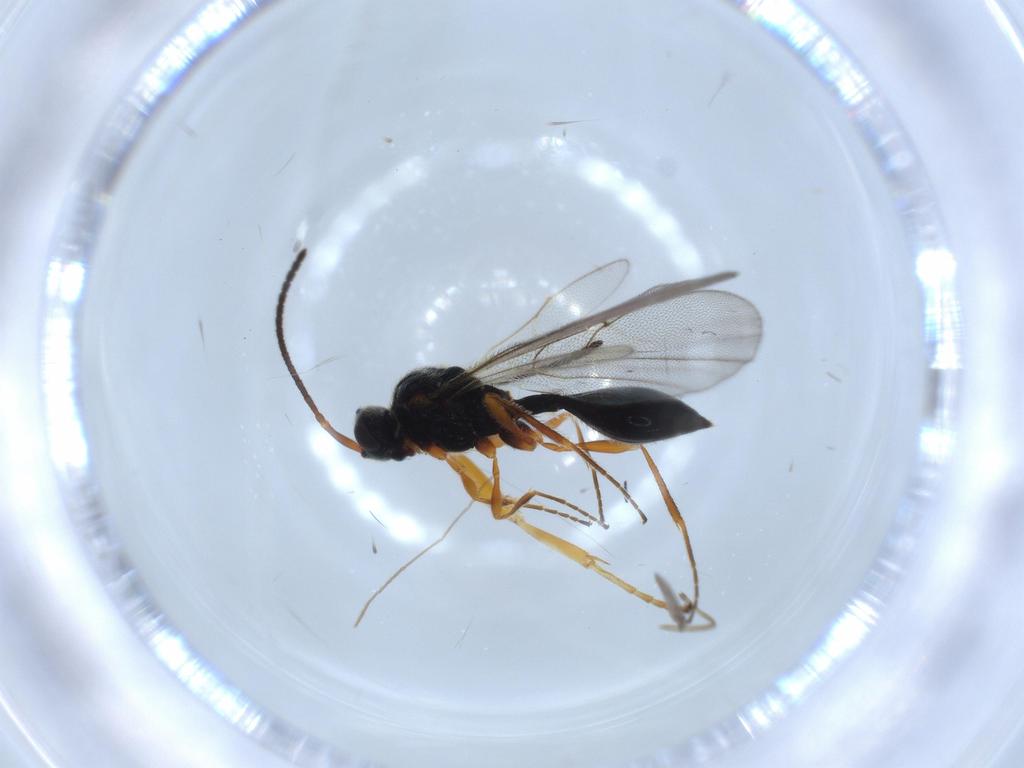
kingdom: Animalia
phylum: Arthropoda
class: Insecta
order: Hymenoptera
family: Ichneumonidae
